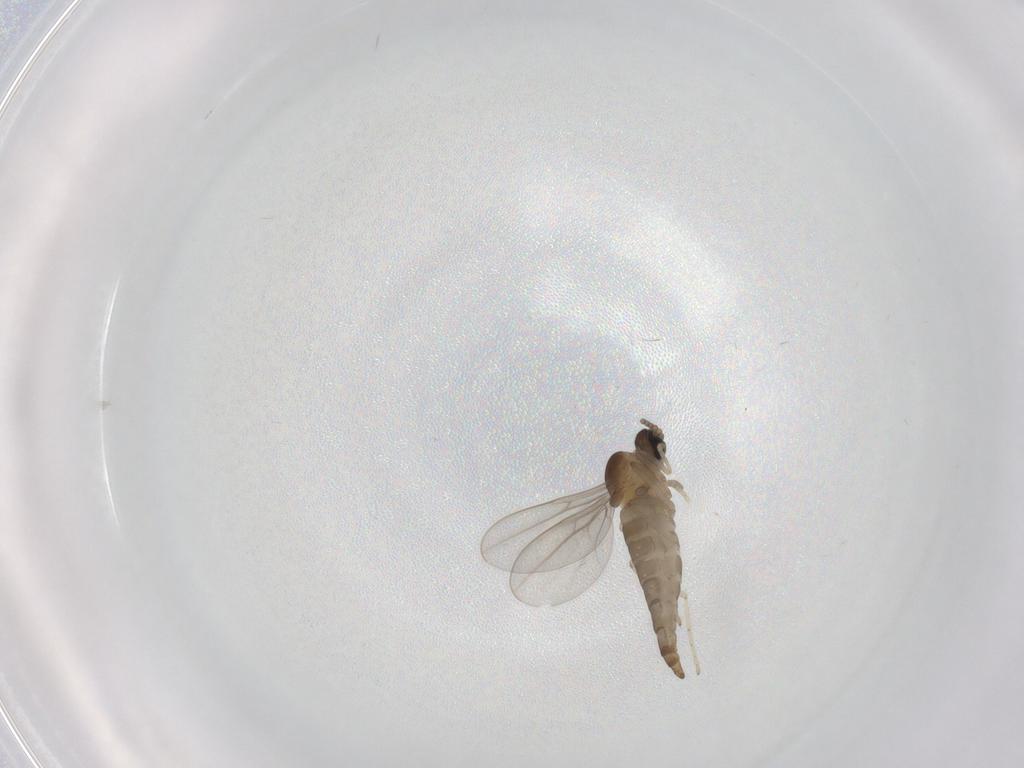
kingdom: Animalia
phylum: Arthropoda
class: Insecta
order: Diptera
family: Cecidomyiidae
